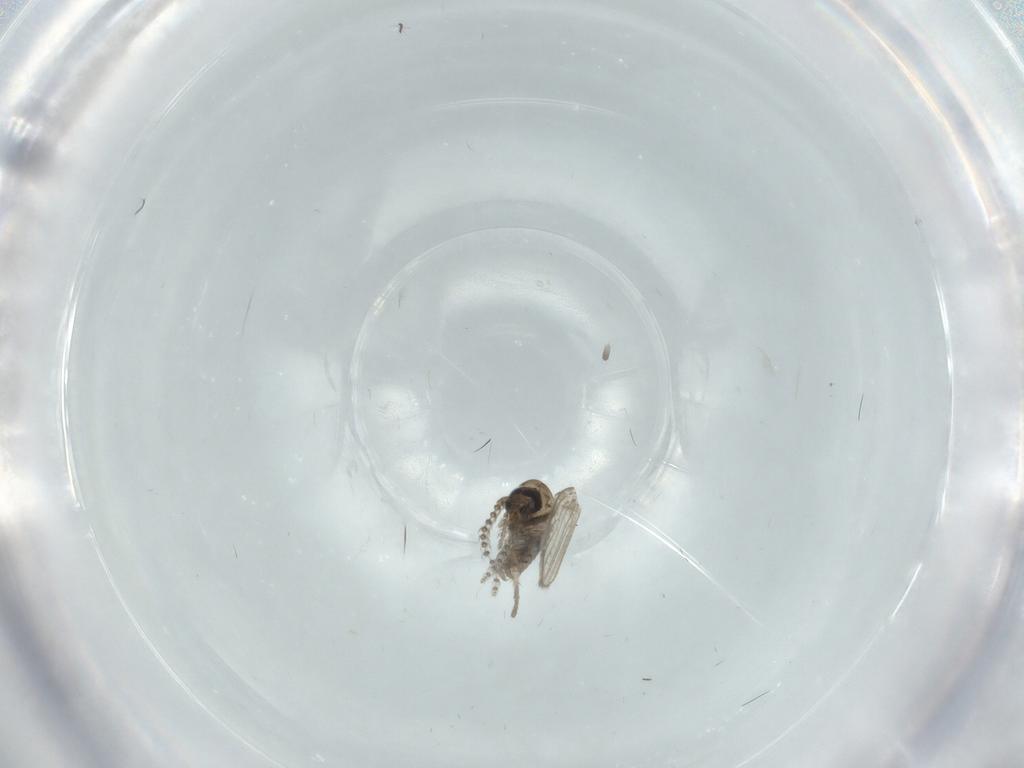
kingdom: Animalia
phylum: Arthropoda
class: Insecta
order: Diptera
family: Psychodidae
